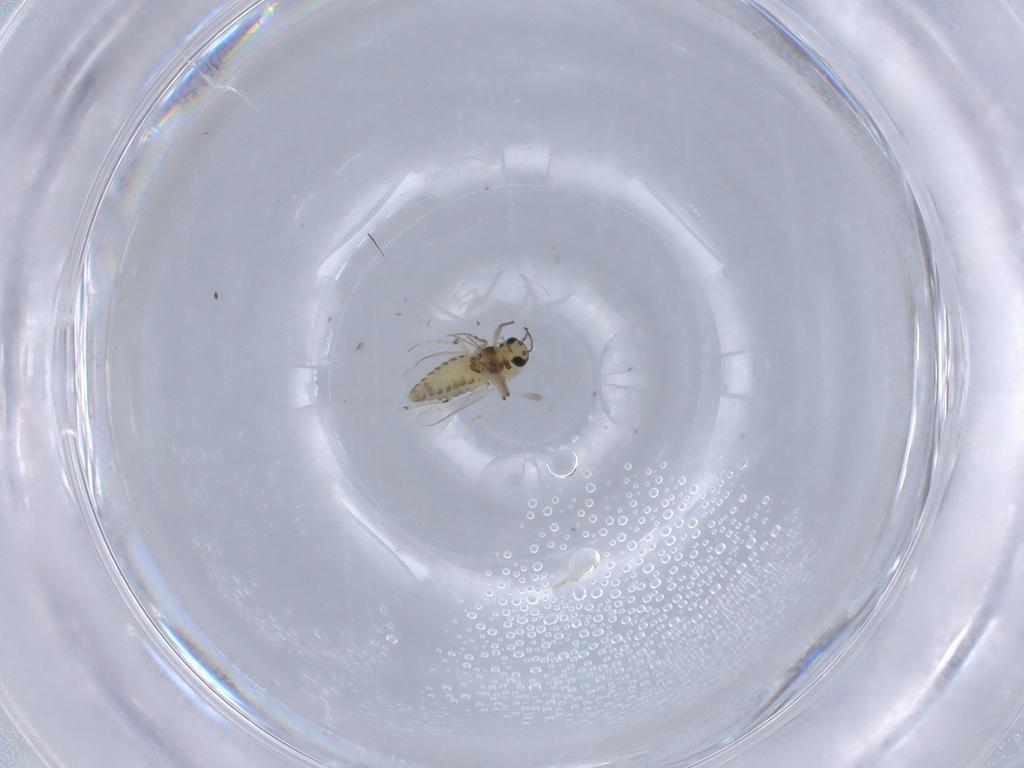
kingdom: Animalia
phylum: Arthropoda
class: Insecta
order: Diptera
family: Chironomidae
